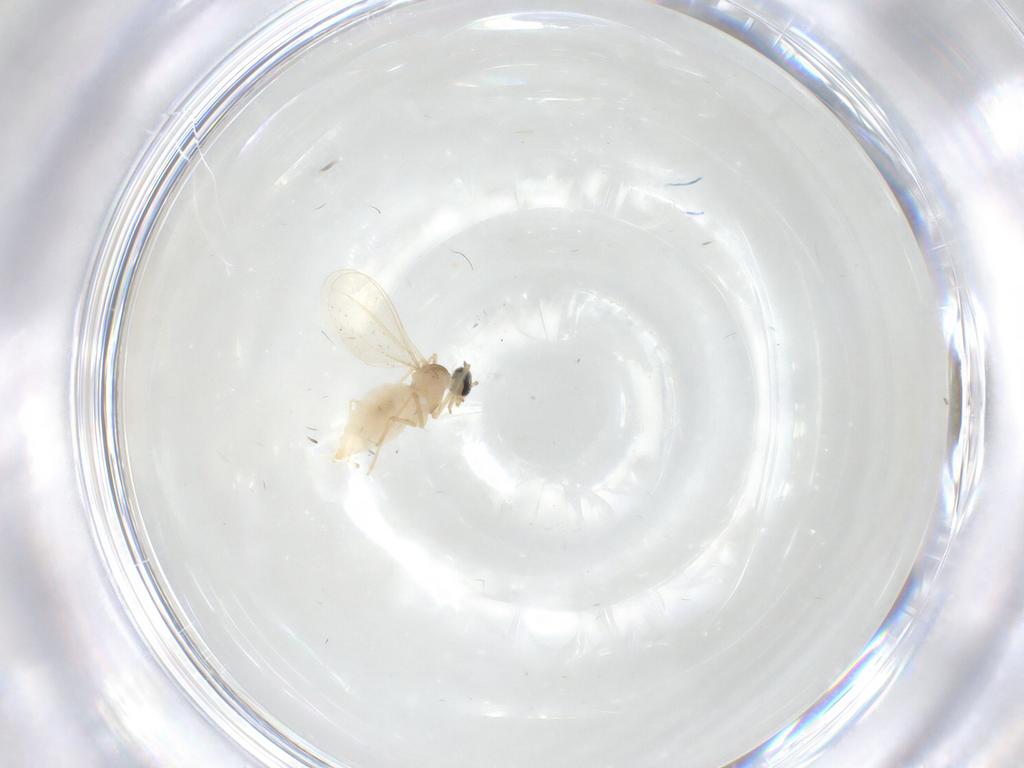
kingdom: Animalia
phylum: Arthropoda
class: Insecta
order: Diptera
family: Cecidomyiidae
